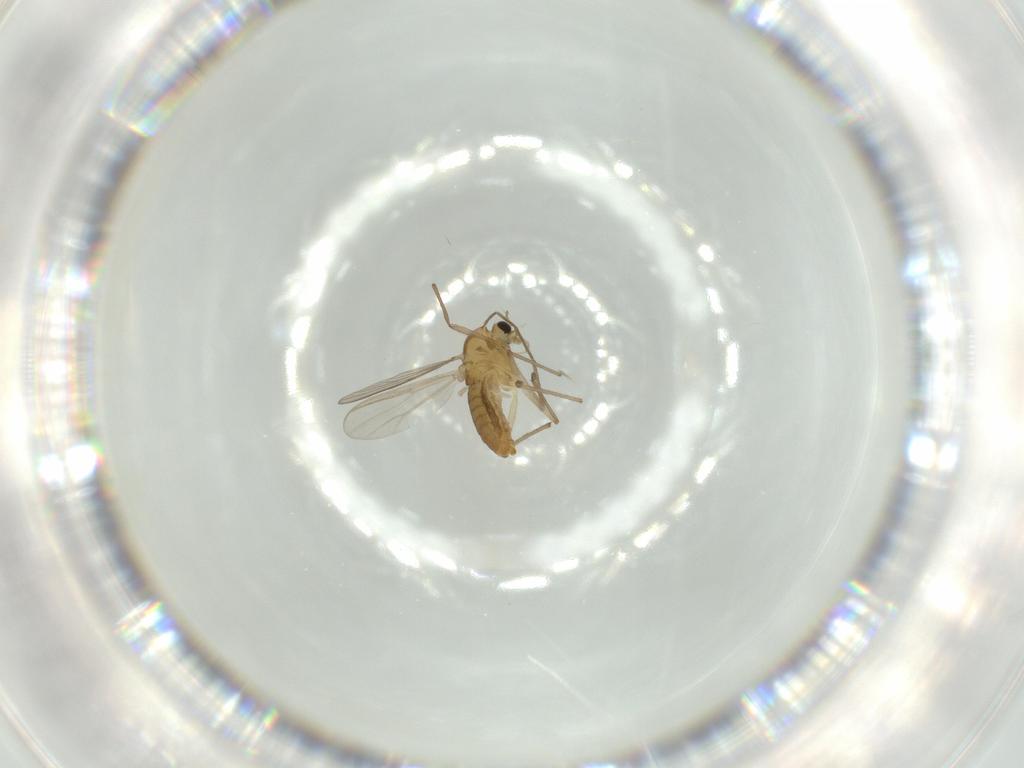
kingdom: Animalia
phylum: Arthropoda
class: Insecta
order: Diptera
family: Chironomidae
